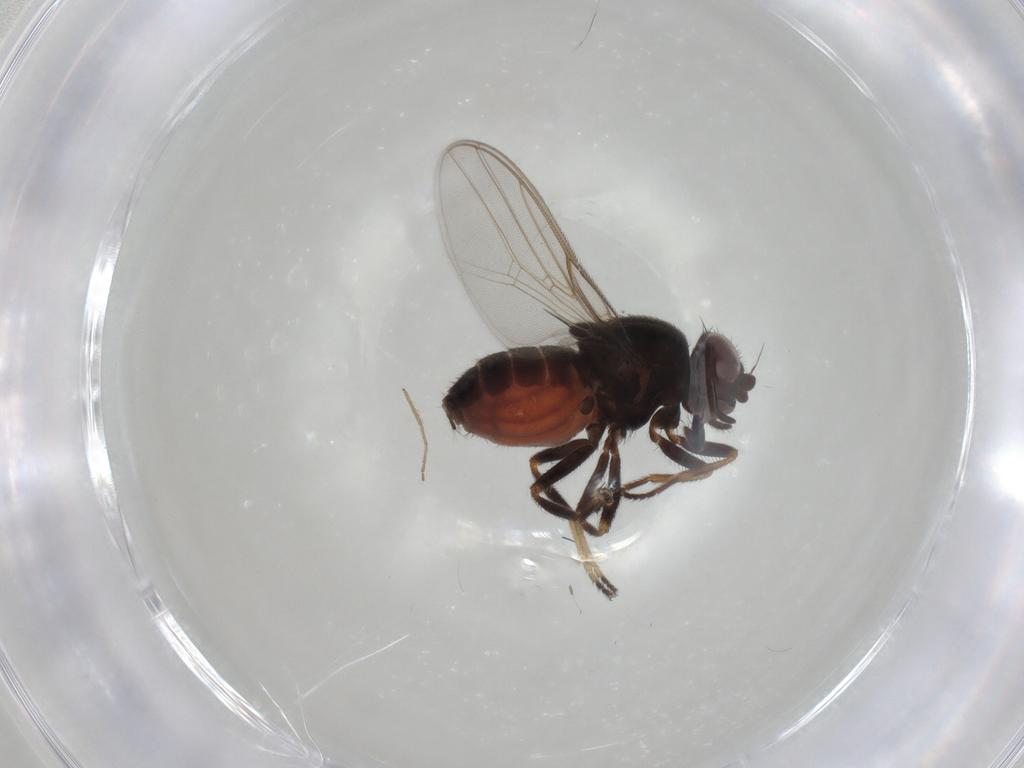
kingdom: Animalia
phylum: Arthropoda
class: Insecta
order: Diptera
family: Chloropidae
